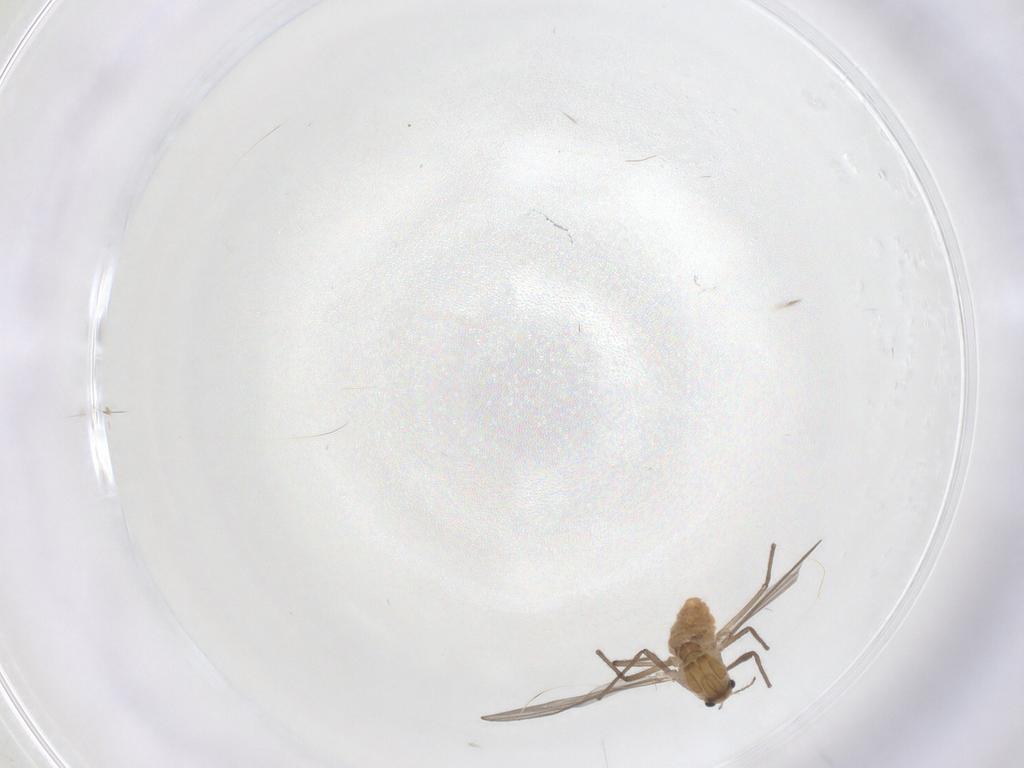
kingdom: Animalia
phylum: Arthropoda
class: Insecta
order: Diptera
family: Chironomidae
